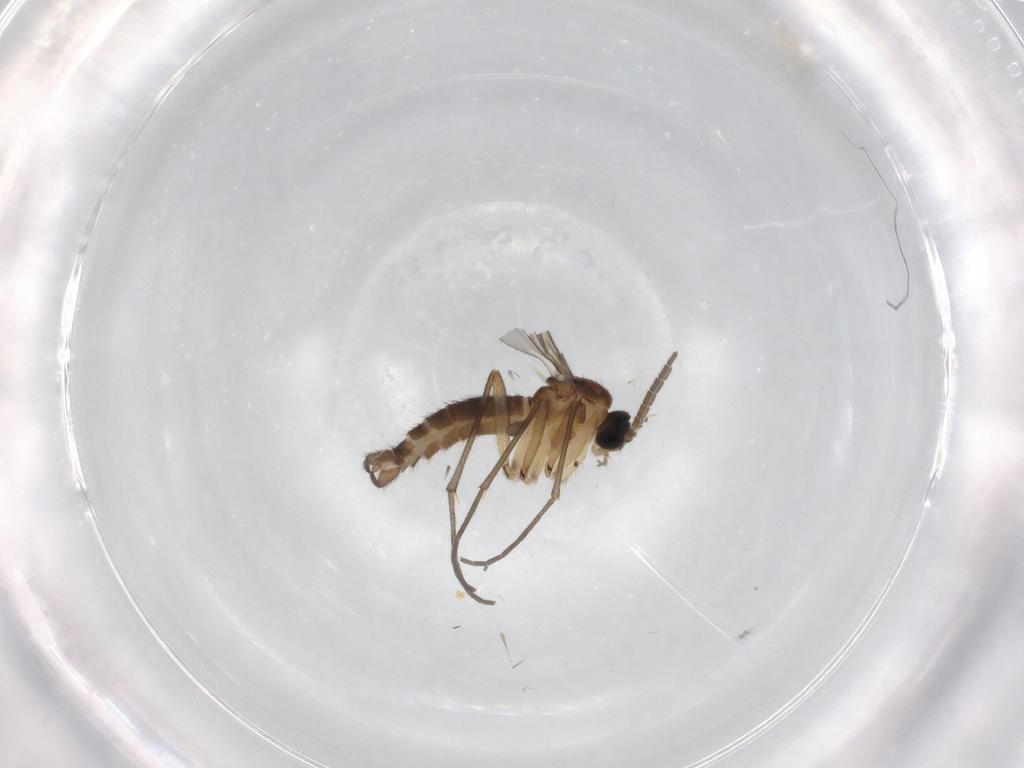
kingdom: Animalia
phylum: Arthropoda
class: Insecta
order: Diptera
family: Sciaridae
